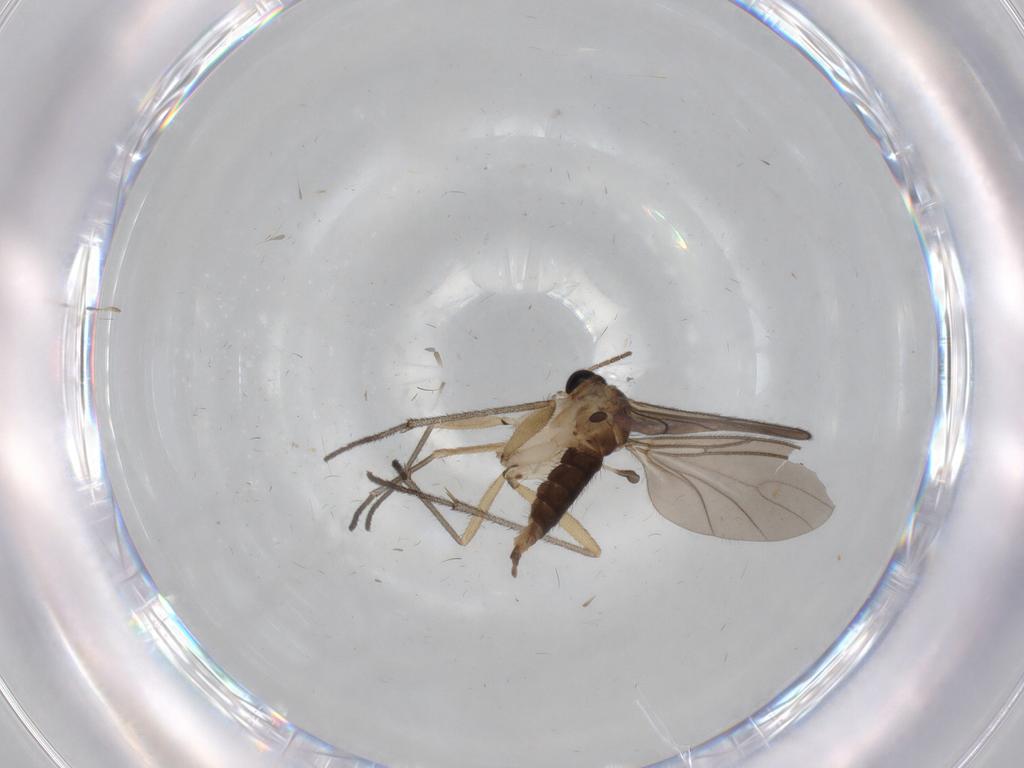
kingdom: Animalia
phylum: Arthropoda
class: Insecta
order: Diptera
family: Sciaridae
